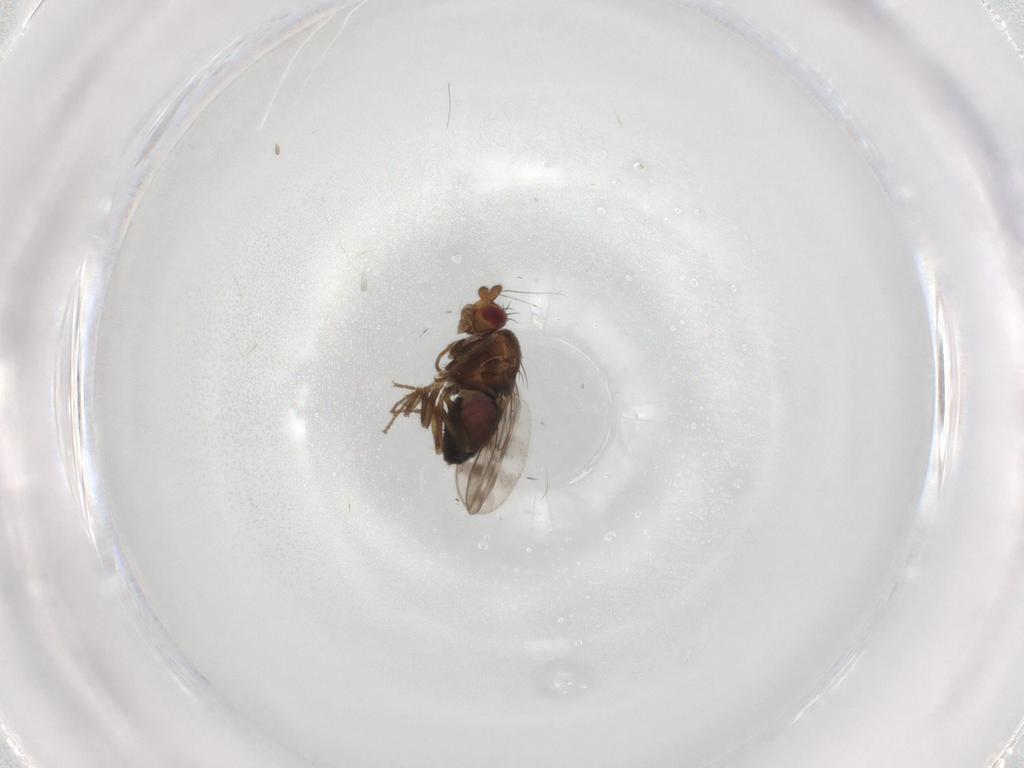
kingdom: Animalia
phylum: Arthropoda
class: Insecta
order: Diptera
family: Sphaeroceridae
